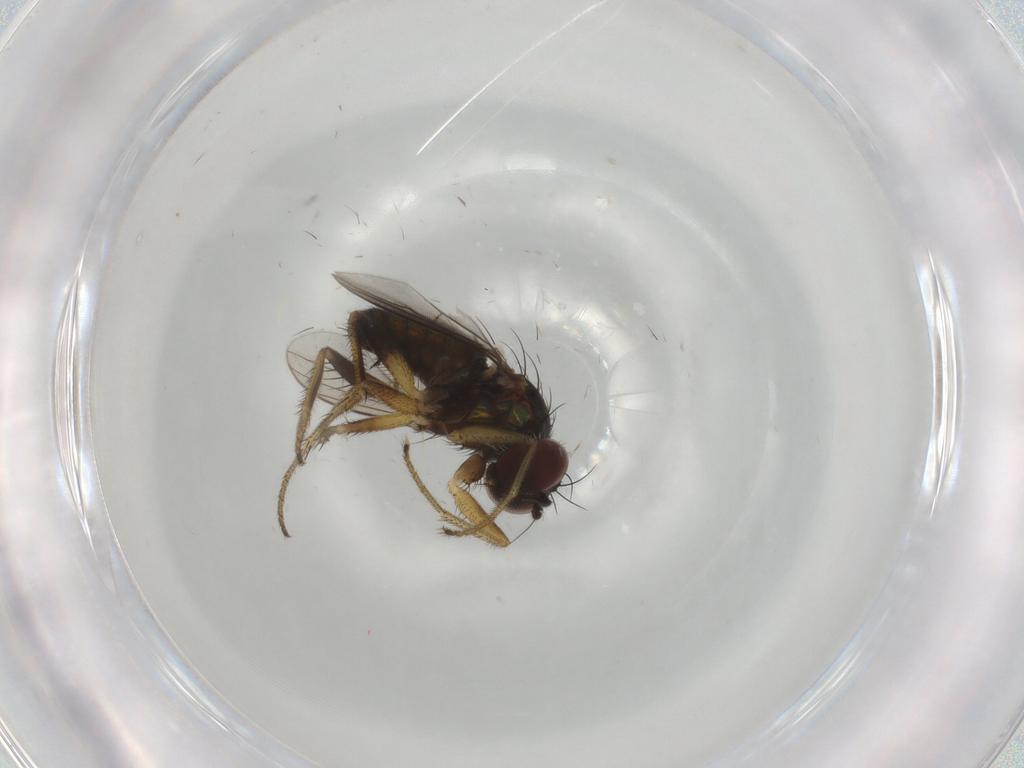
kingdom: Animalia
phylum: Arthropoda
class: Insecta
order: Diptera
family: Dolichopodidae
